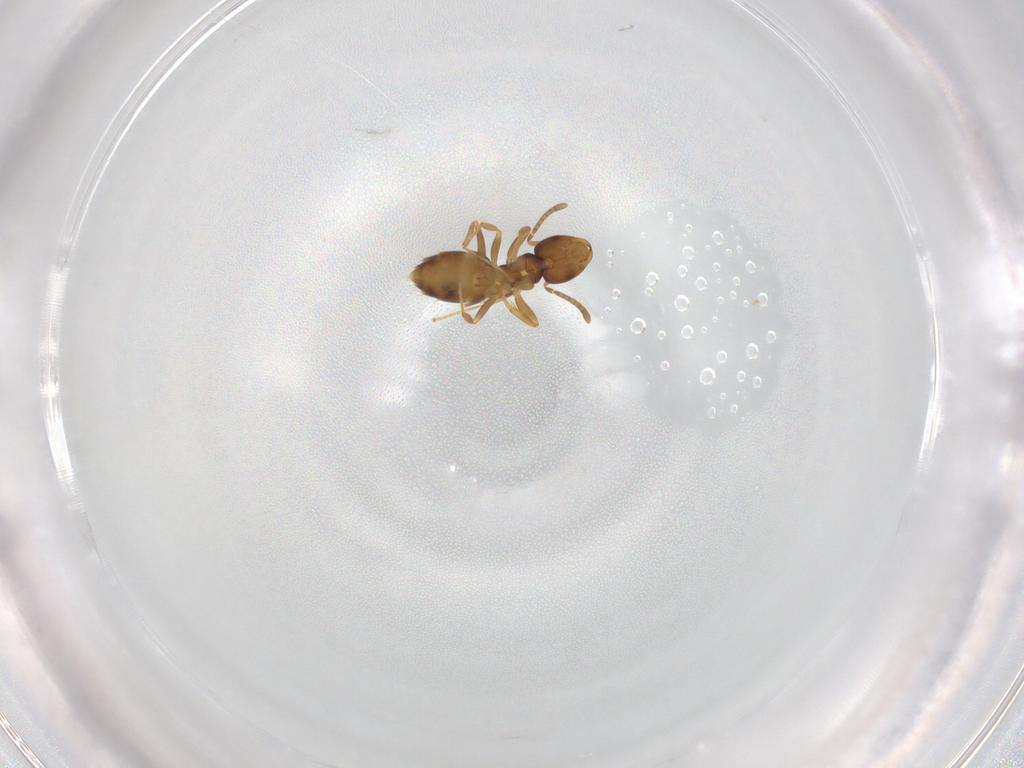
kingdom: Animalia
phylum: Arthropoda
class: Insecta
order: Hymenoptera
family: Formicidae
